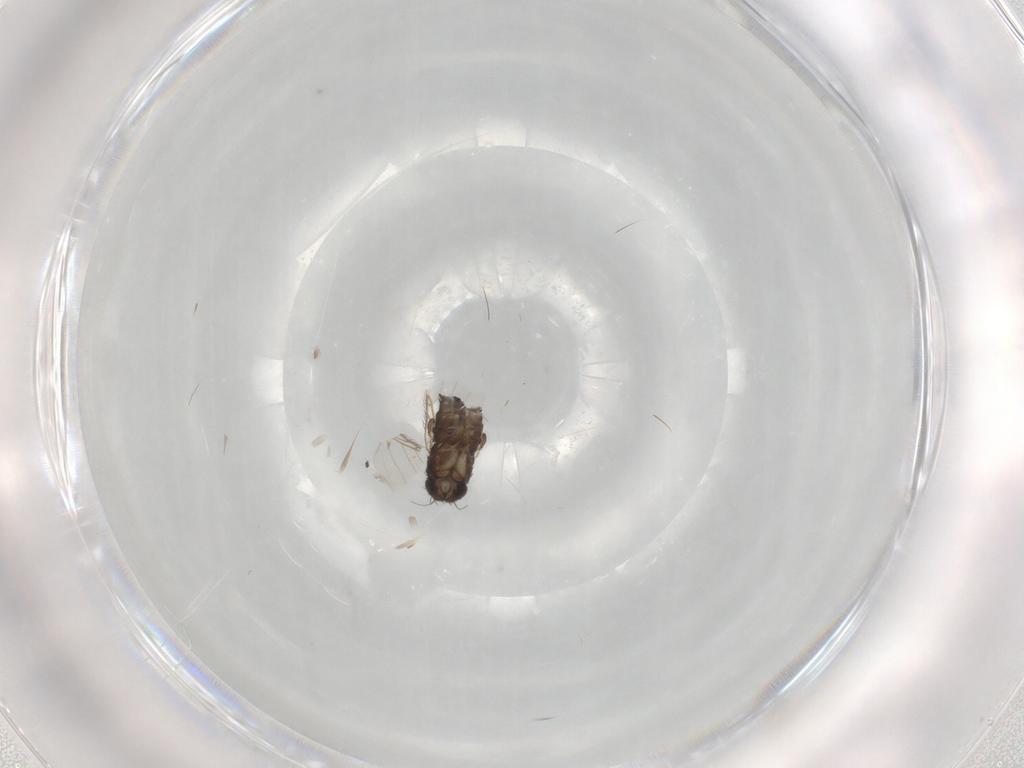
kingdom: Animalia
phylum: Arthropoda
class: Insecta
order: Diptera
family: Phoridae
